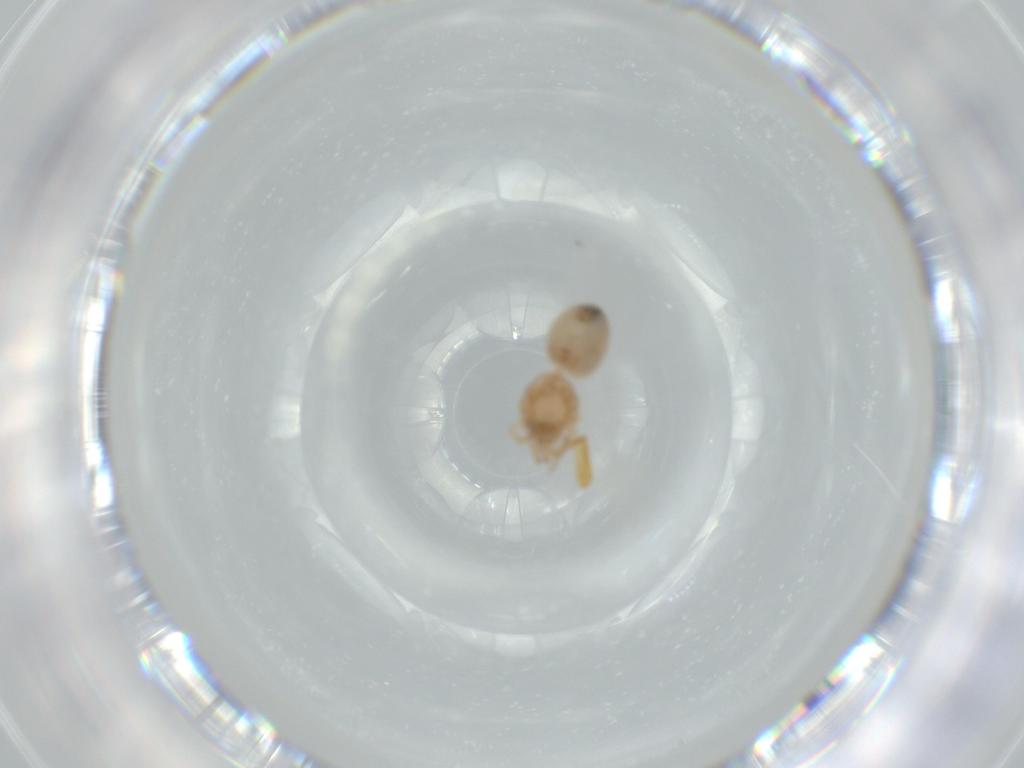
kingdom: Animalia
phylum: Arthropoda
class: Arachnida
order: Araneae
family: Oonopidae
